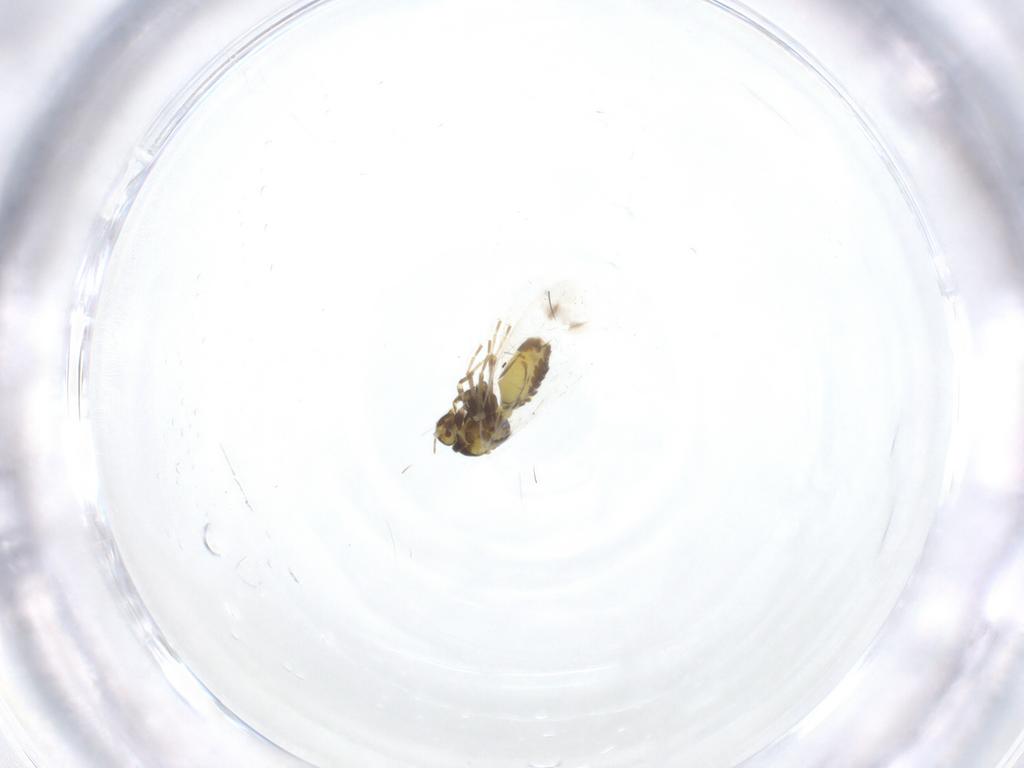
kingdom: Animalia
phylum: Arthropoda
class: Insecta
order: Hemiptera
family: Aleyrodidae
